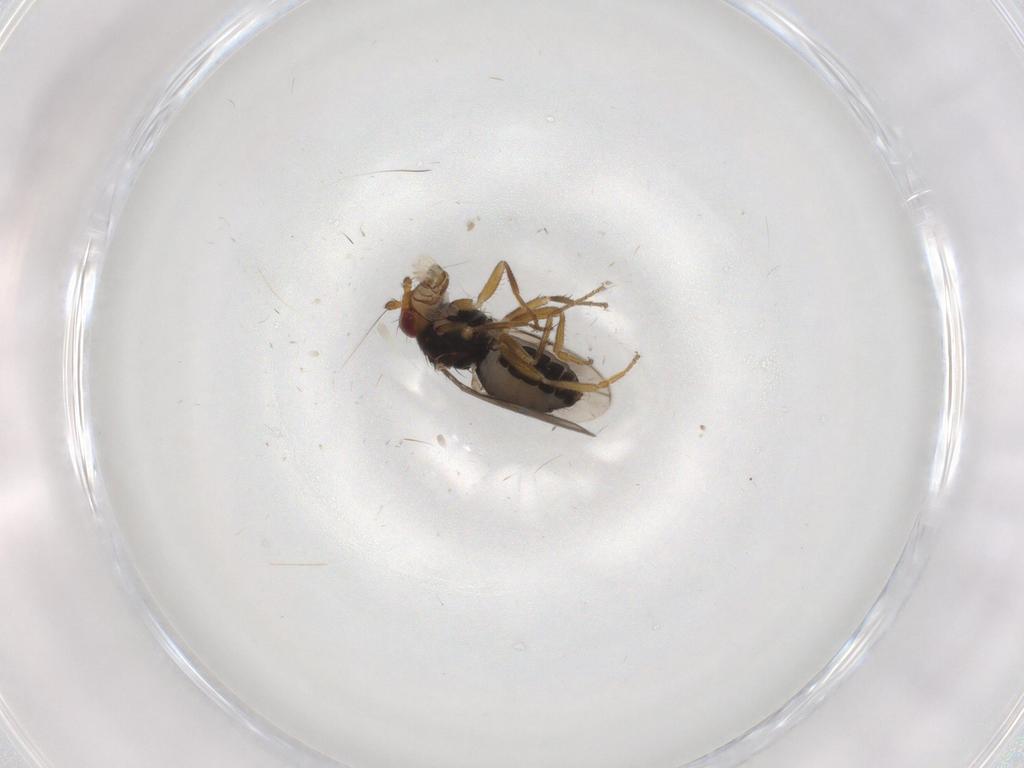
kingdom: Animalia
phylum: Arthropoda
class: Insecta
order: Diptera
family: Sphaeroceridae
